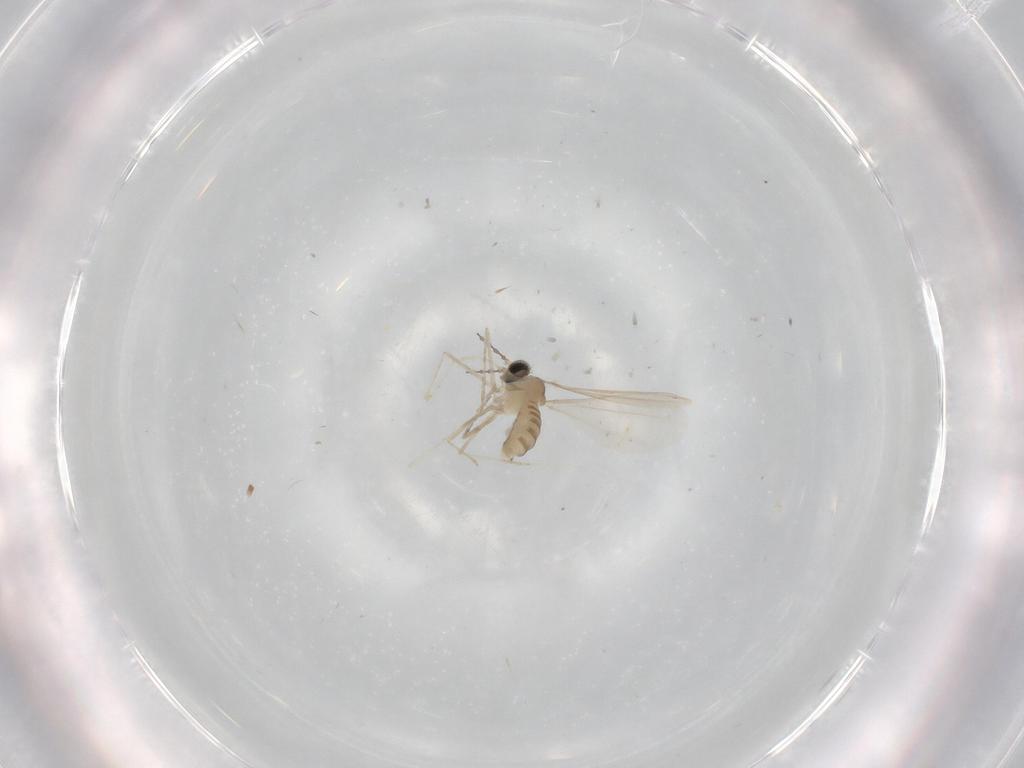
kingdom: Animalia
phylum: Arthropoda
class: Insecta
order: Diptera
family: Cecidomyiidae
